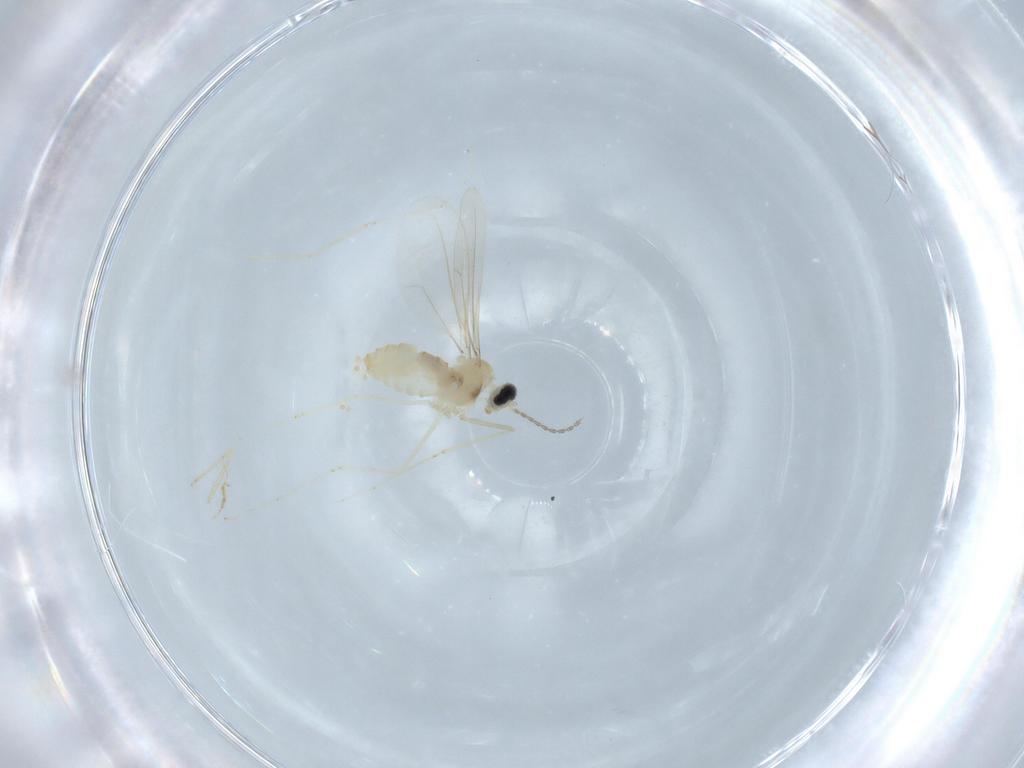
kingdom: Animalia
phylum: Arthropoda
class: Insecta
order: Diptera
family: Cecidomyiidae
